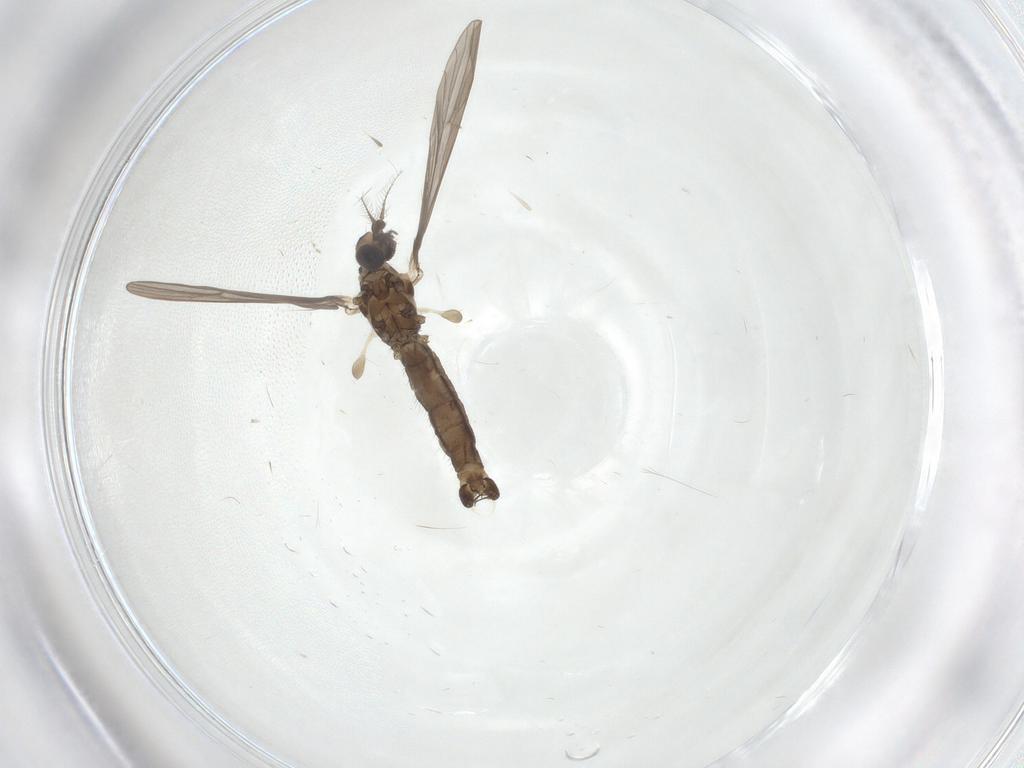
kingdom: Animalia
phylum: Arthropoda
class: Insecta
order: Diptera
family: Limoniidae
